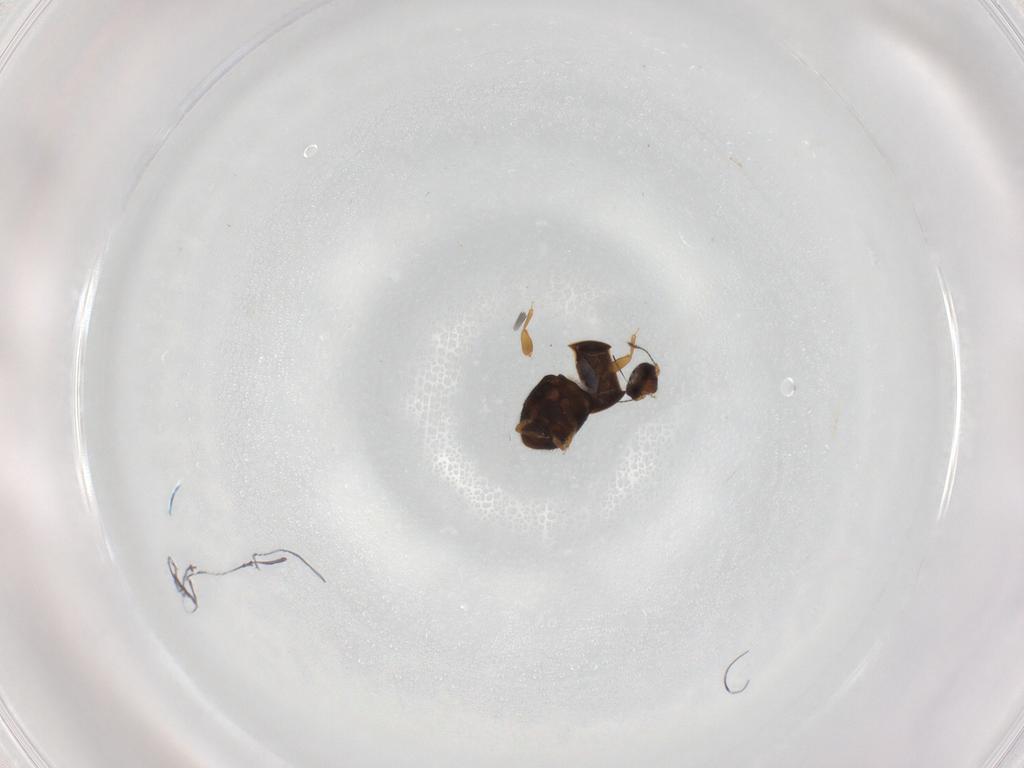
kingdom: Animalia
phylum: Arthropoda
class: Insecta
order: Coleoptera
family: Ptiliidae
